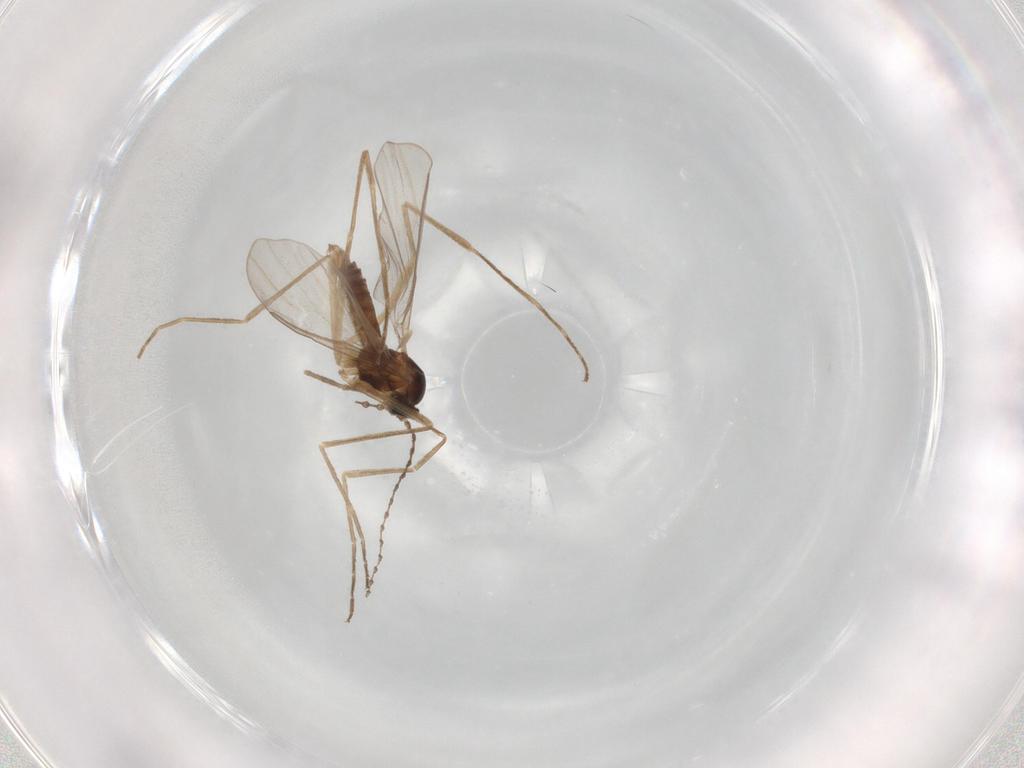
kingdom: Animalia
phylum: Arthropoda
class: Insecta
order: Diptera
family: Cecidomyiidae
